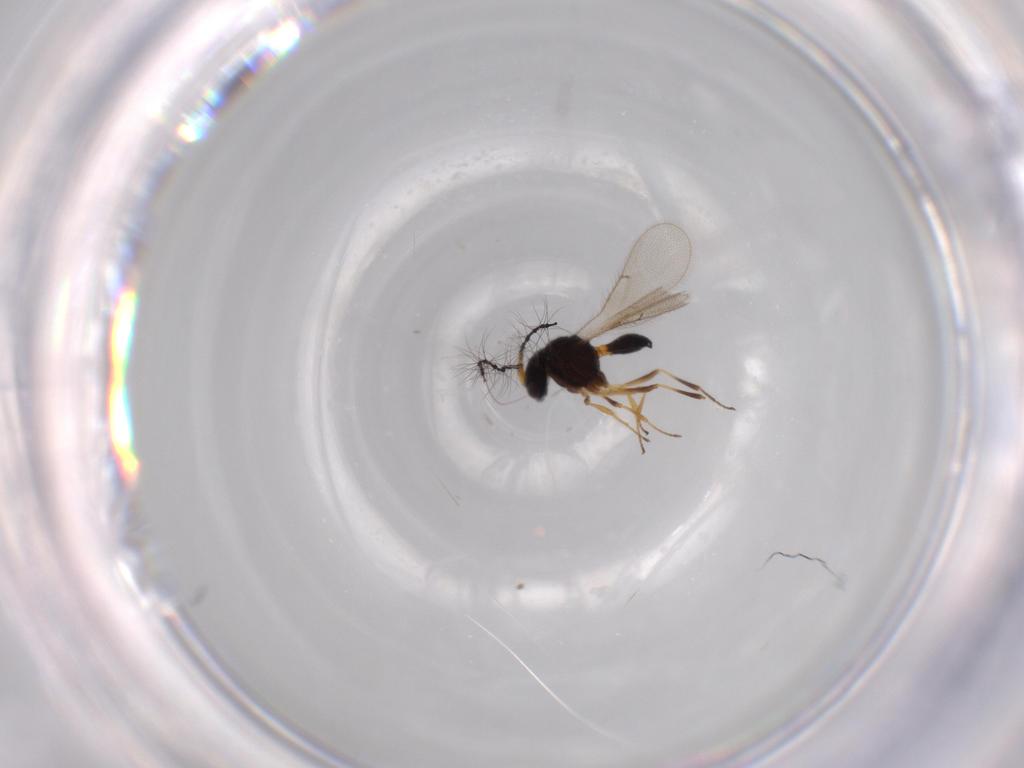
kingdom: Animalia
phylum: Arthropoda
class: Insecta
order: Hymenoptera
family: Scelionidae
